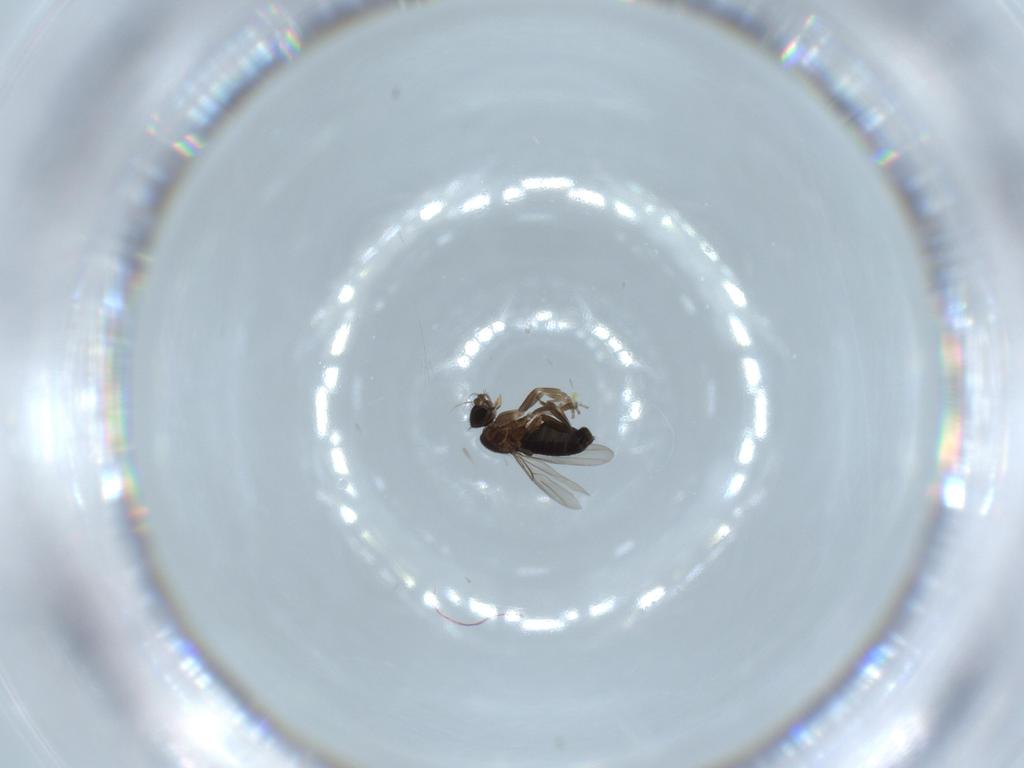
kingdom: Animalia
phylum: Arthropoda
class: Insecta
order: Diptera
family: Phoridae
